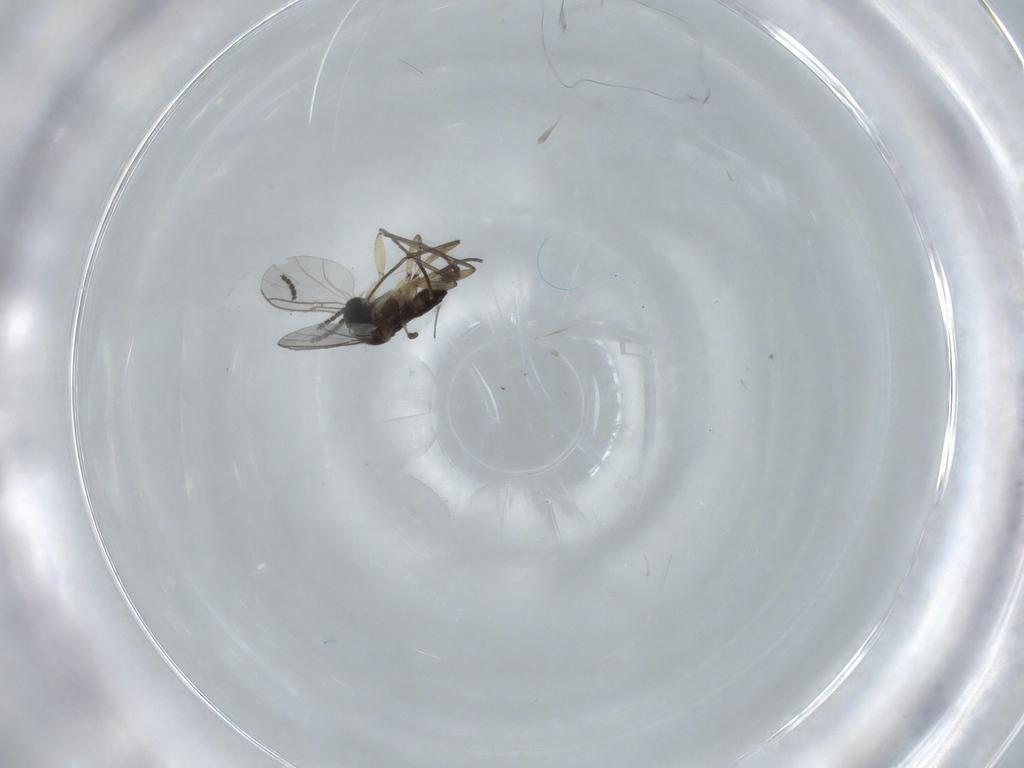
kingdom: Animalia
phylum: Arthropoda
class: Insecta
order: Diptera
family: Sciaridae
